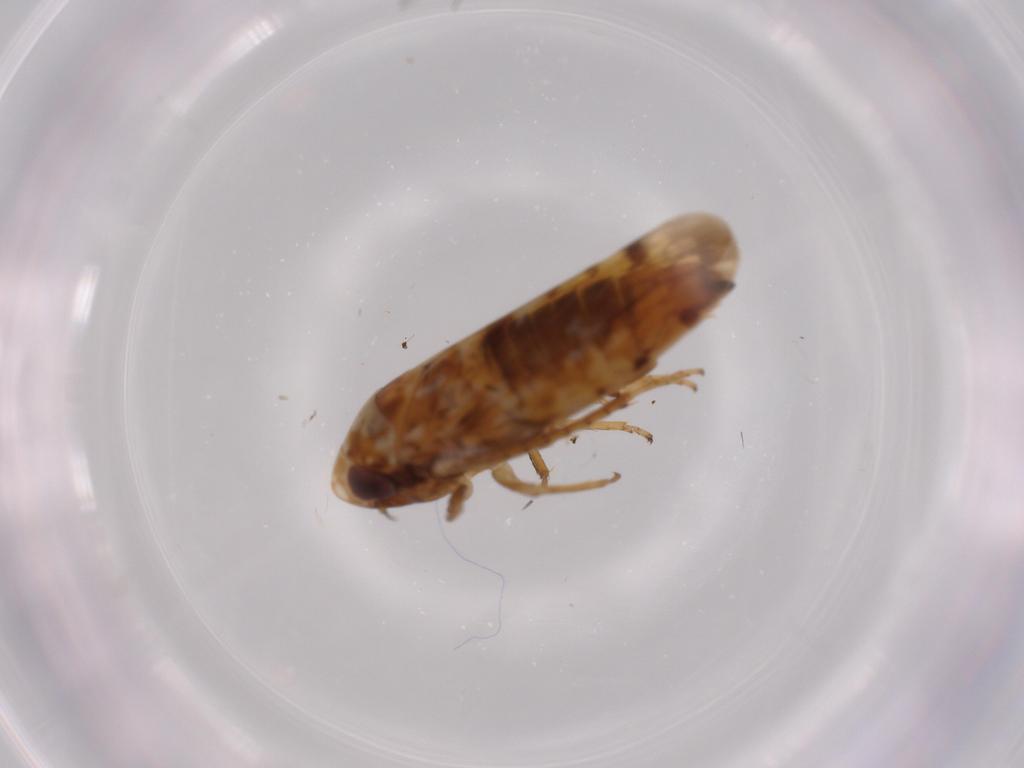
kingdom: Animalia
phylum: Arthropoda
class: Insecta
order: Hemiptera
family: Cicadellidae
